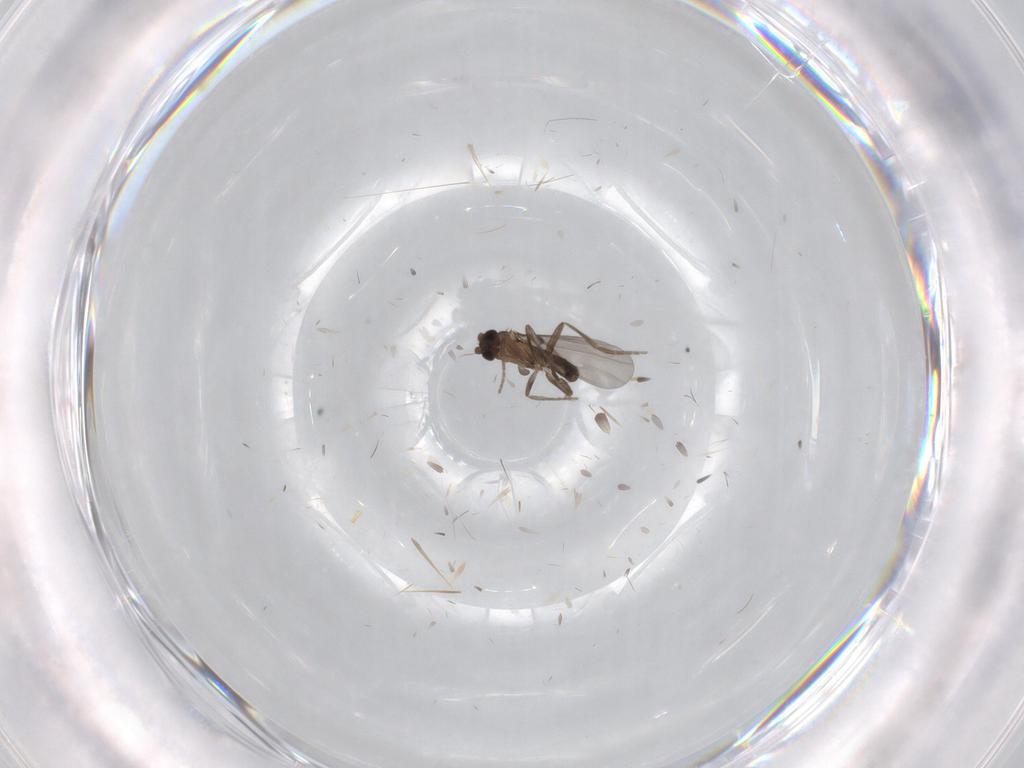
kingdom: Animalia
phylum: Arthropoda
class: Insecta
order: Diptera
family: Phoridae
